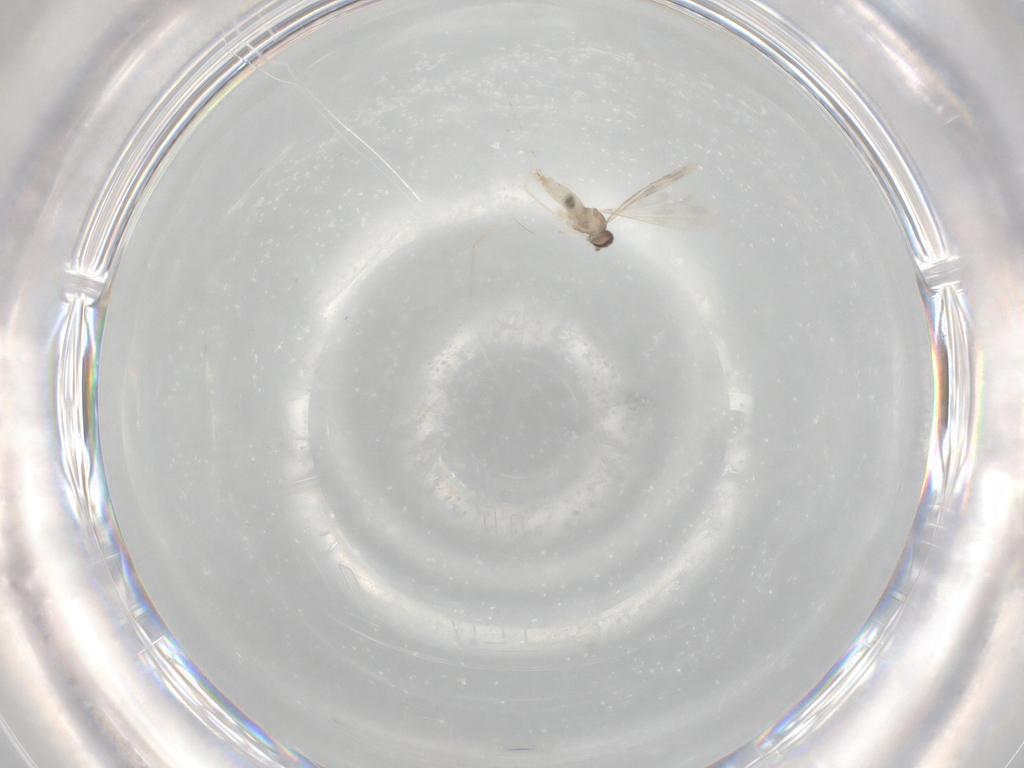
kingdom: Animalia
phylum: Arthropoda
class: Insecta
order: Diptera
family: Cecidomyiidae
